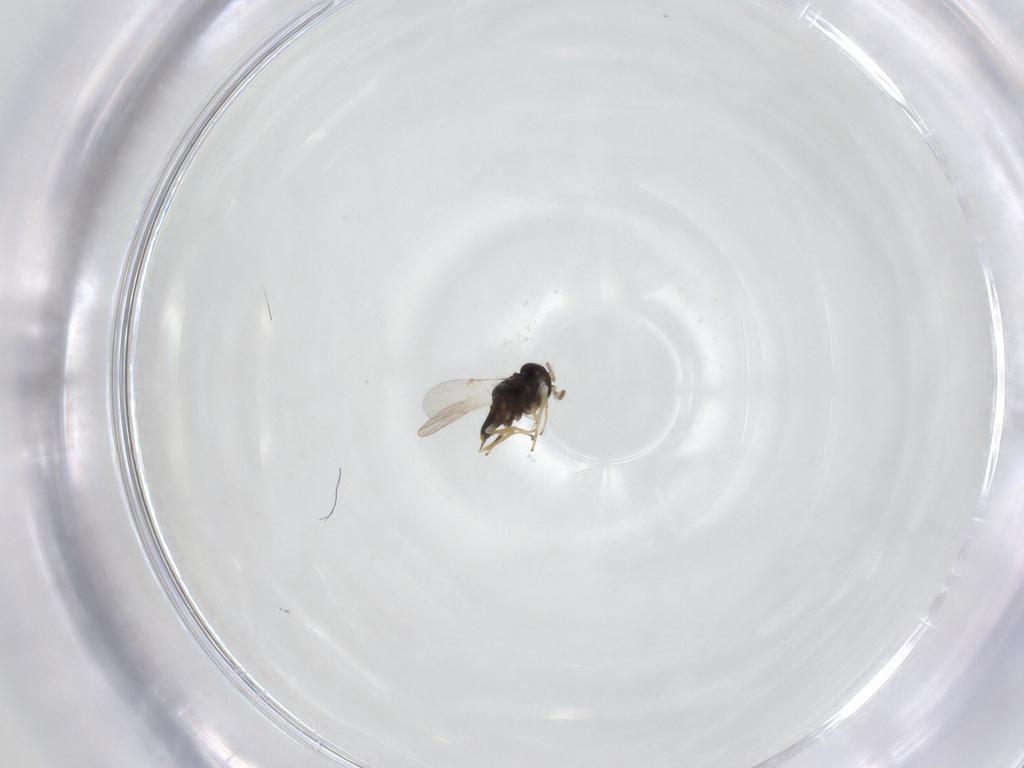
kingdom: Animalia
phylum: Arthropoda
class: Insecta
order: Hymenoptera
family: Encyrtidae
